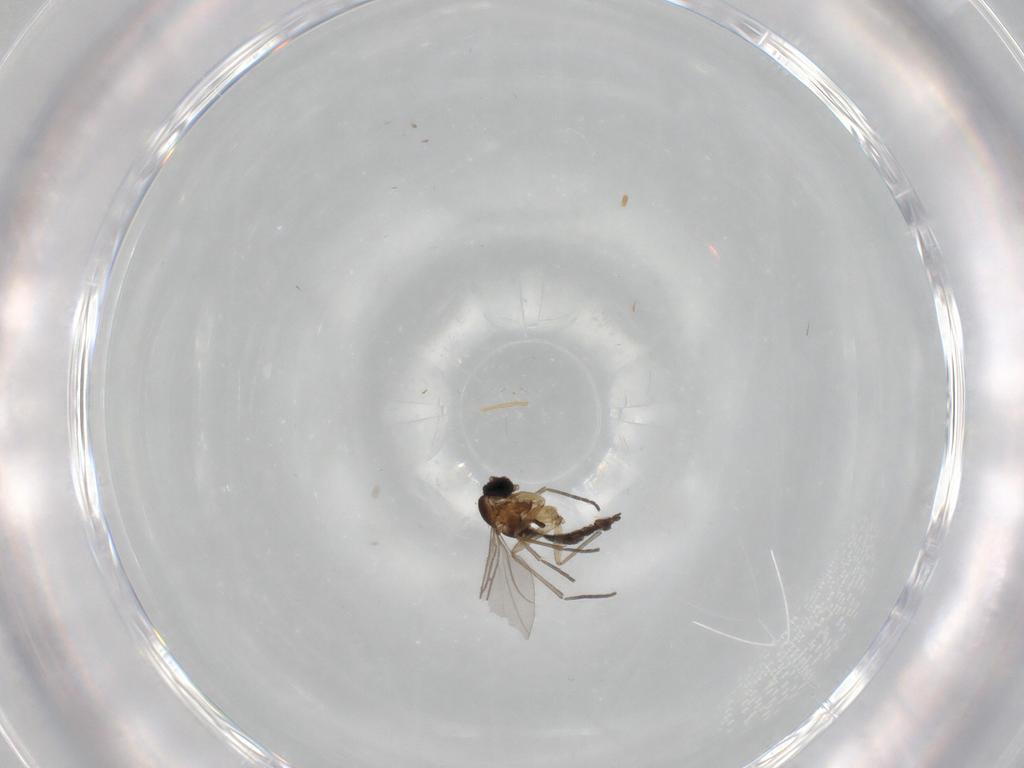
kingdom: Animalia
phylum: Arthropoda
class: Insecta
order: Diptera
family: Sciaridae
